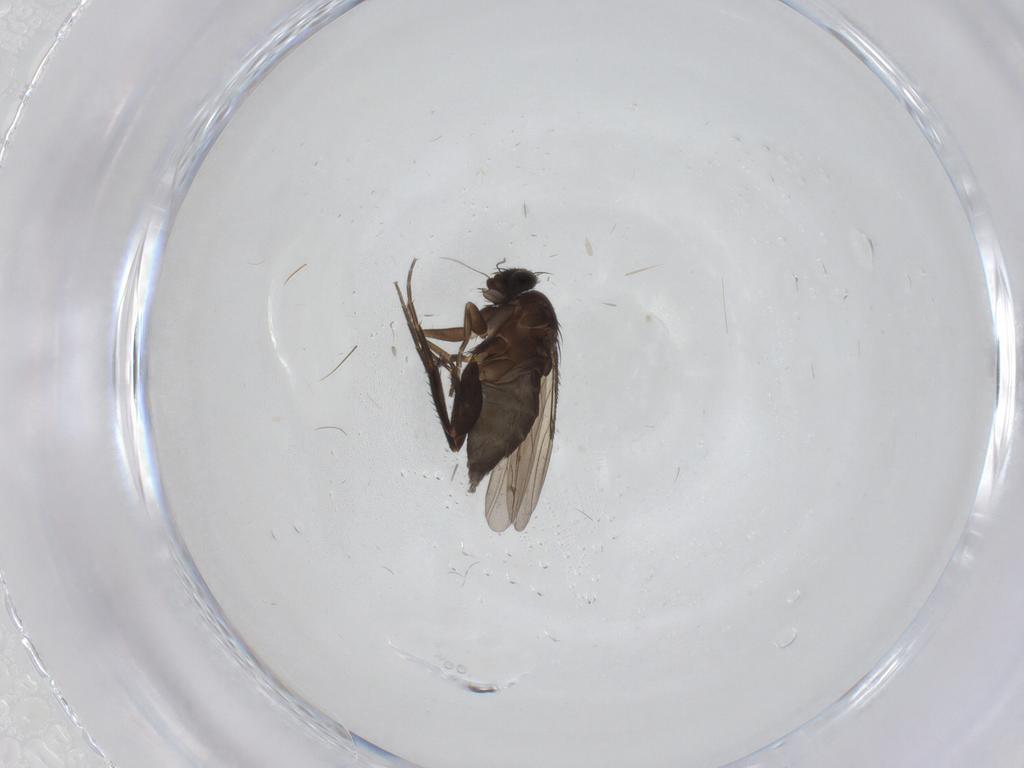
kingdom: Animalia
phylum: Arthropoda
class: Insecta
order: Diptera
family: Phoridae
